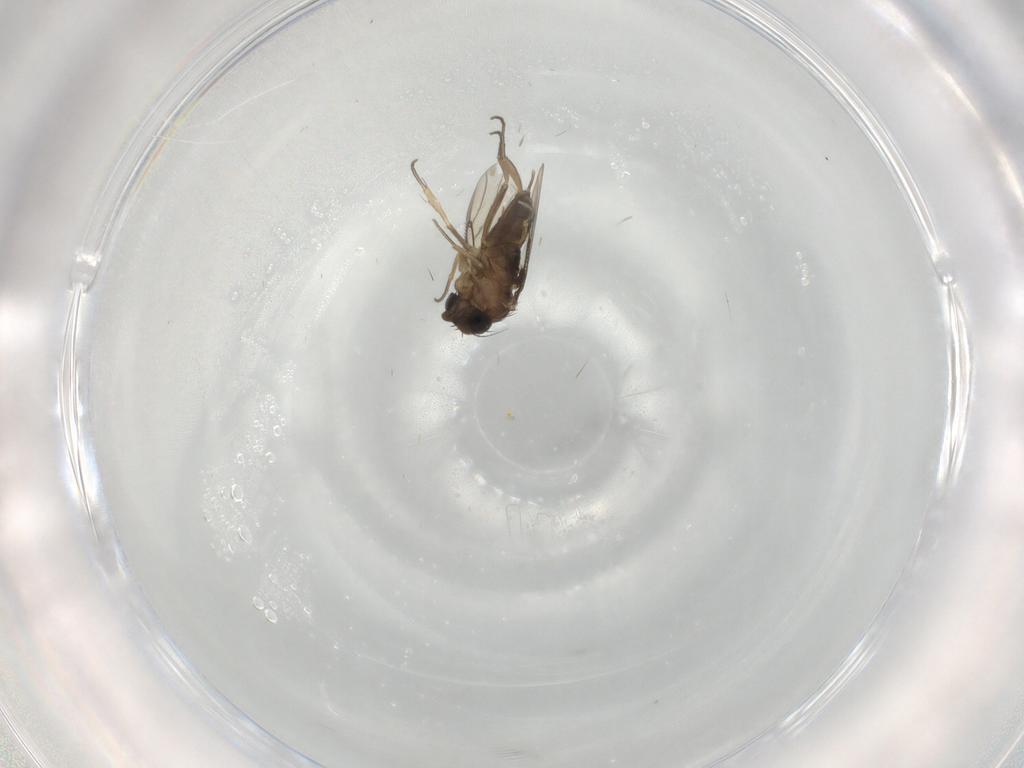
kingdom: Animalia
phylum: Arthropoda
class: Insecta
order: Diptera
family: Phoridae
